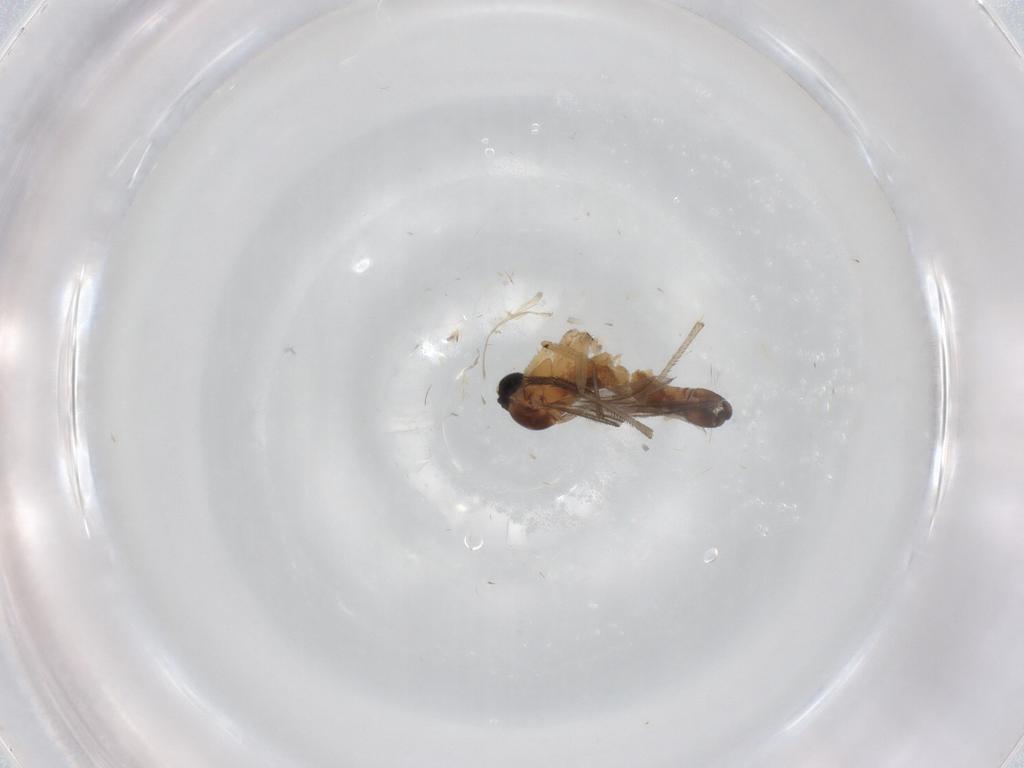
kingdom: Animalia
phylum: Arthropoda
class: Insecta
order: Diptera
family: Sciaridae
